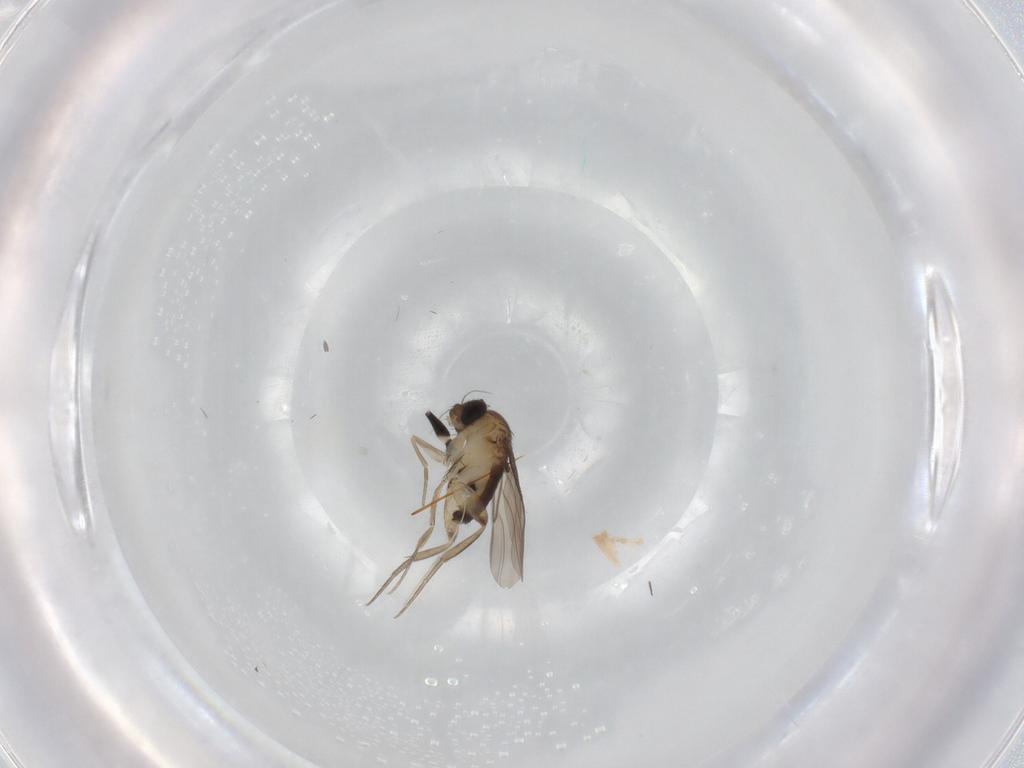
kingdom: Animalia
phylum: Arthropoda
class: Insecta
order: Diptera
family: Phoridae
